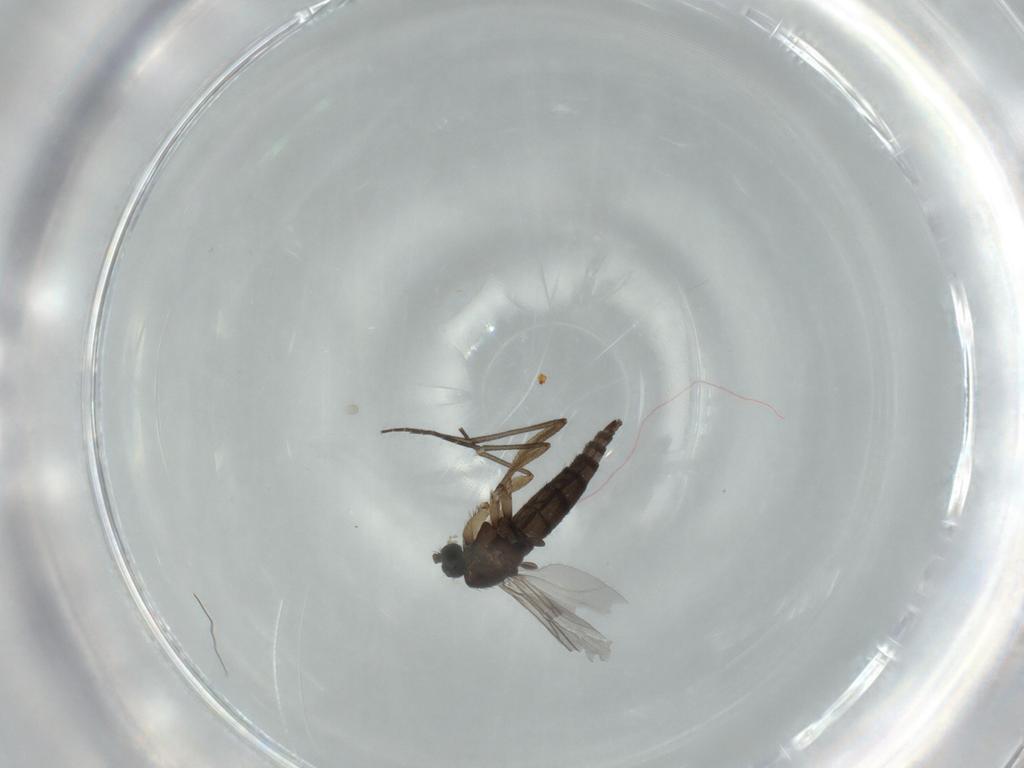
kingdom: Animalia
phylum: Arthropoda
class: Insecta
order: Diptera
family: Sciaridae
